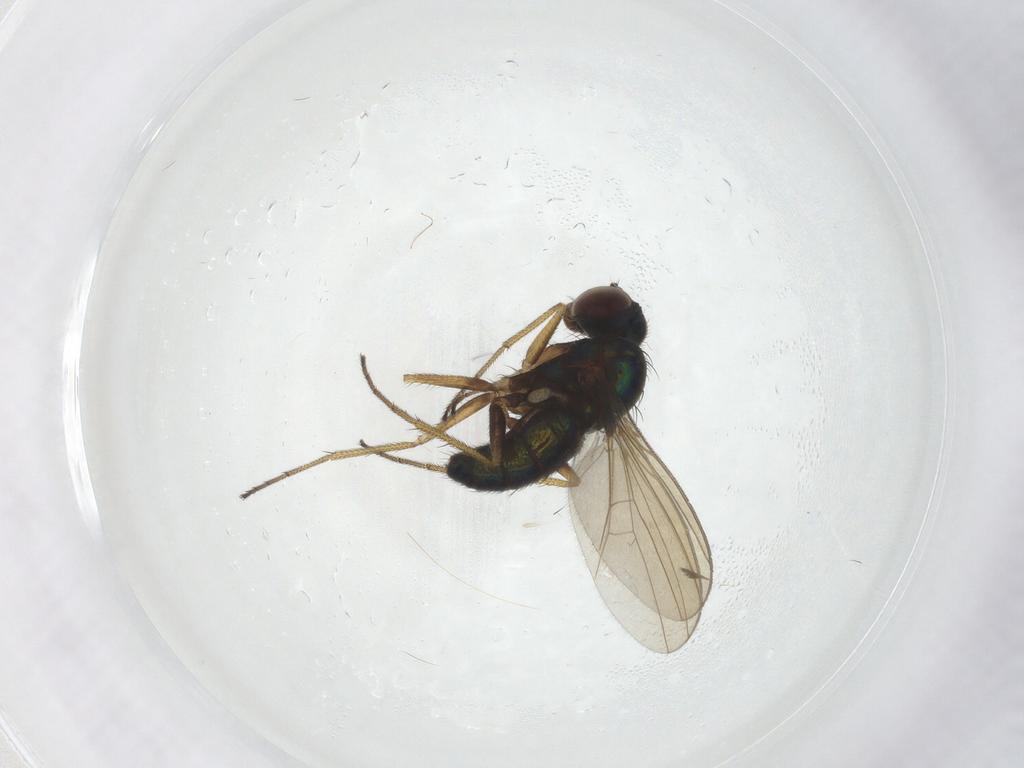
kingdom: Animalia
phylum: Arthropoda
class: Insecta
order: Diptera
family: Dolichopodidae
